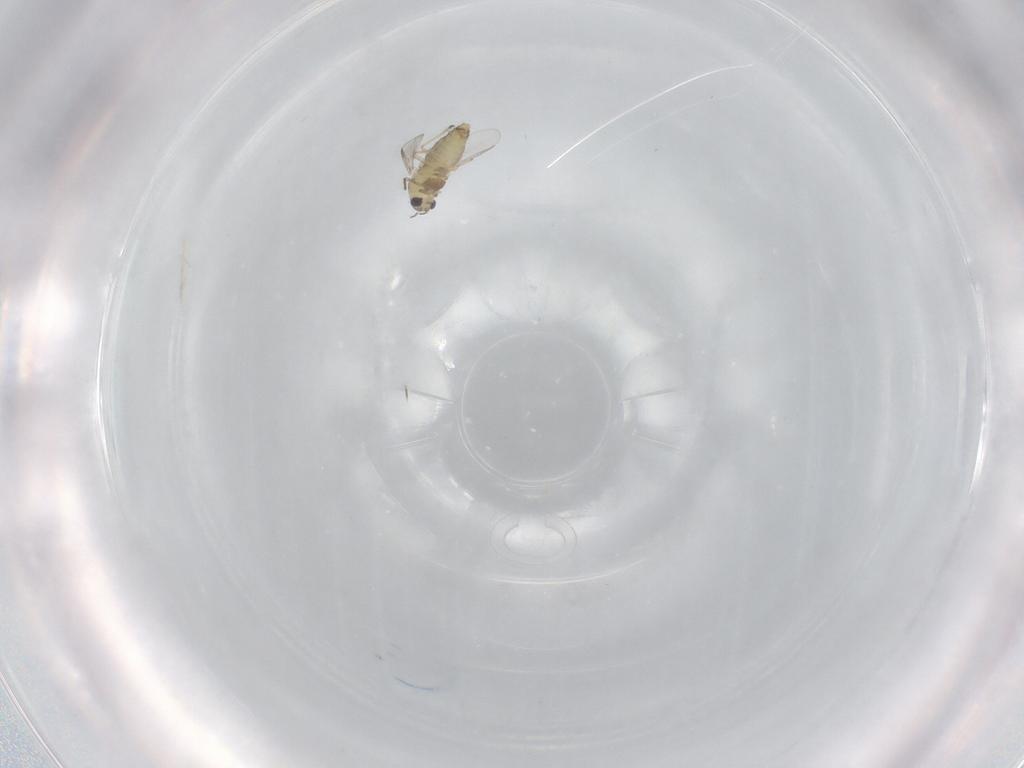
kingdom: Animalia
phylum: Arthropoda
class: Insecta
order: Diptera
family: Chironomidae
